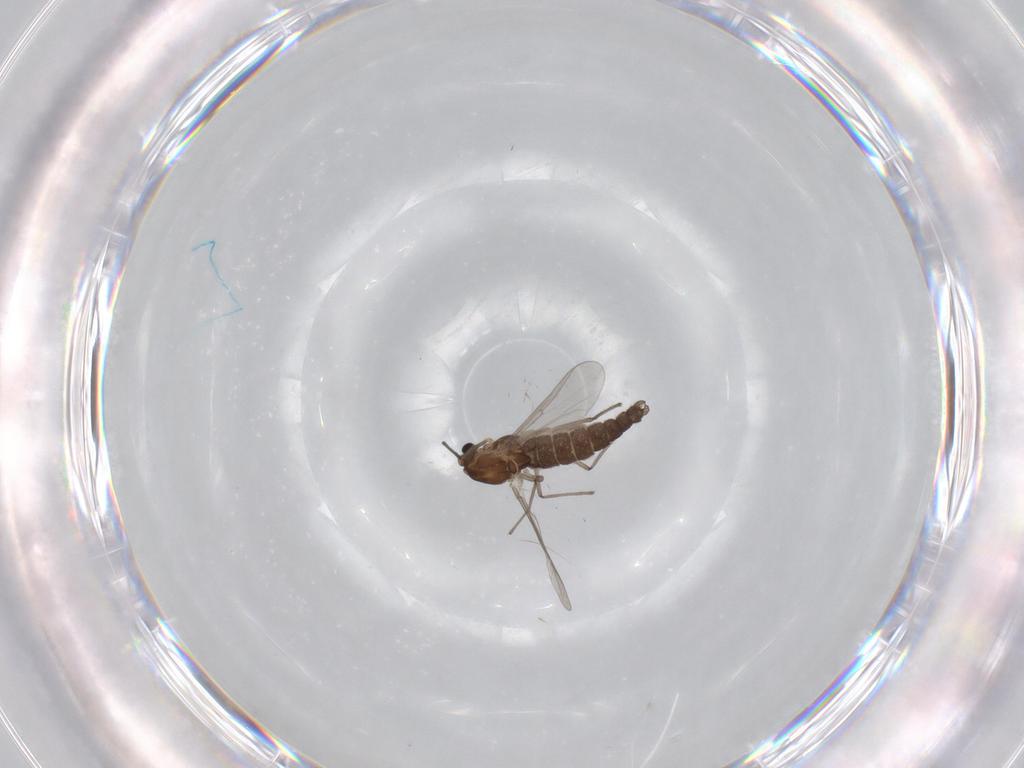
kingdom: Animalia
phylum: Arthropoda
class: Insecta
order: Diptera
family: Chironomidae
